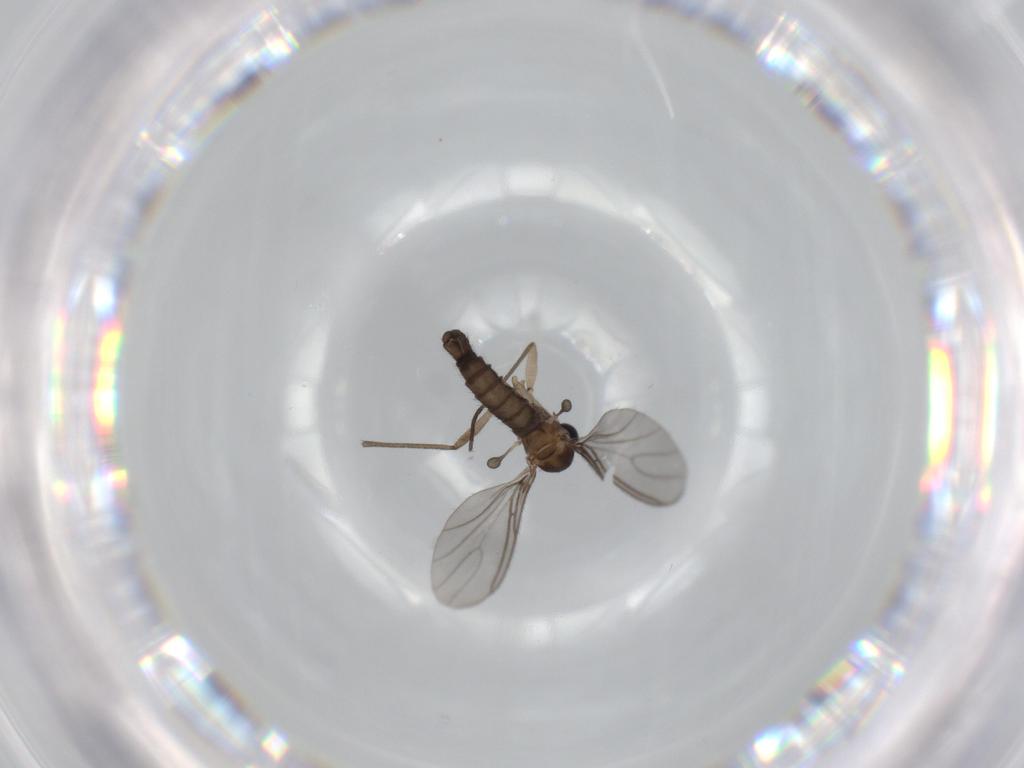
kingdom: Animalia
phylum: Arthropoda
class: Insecta
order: Diptera
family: Sciaridae
